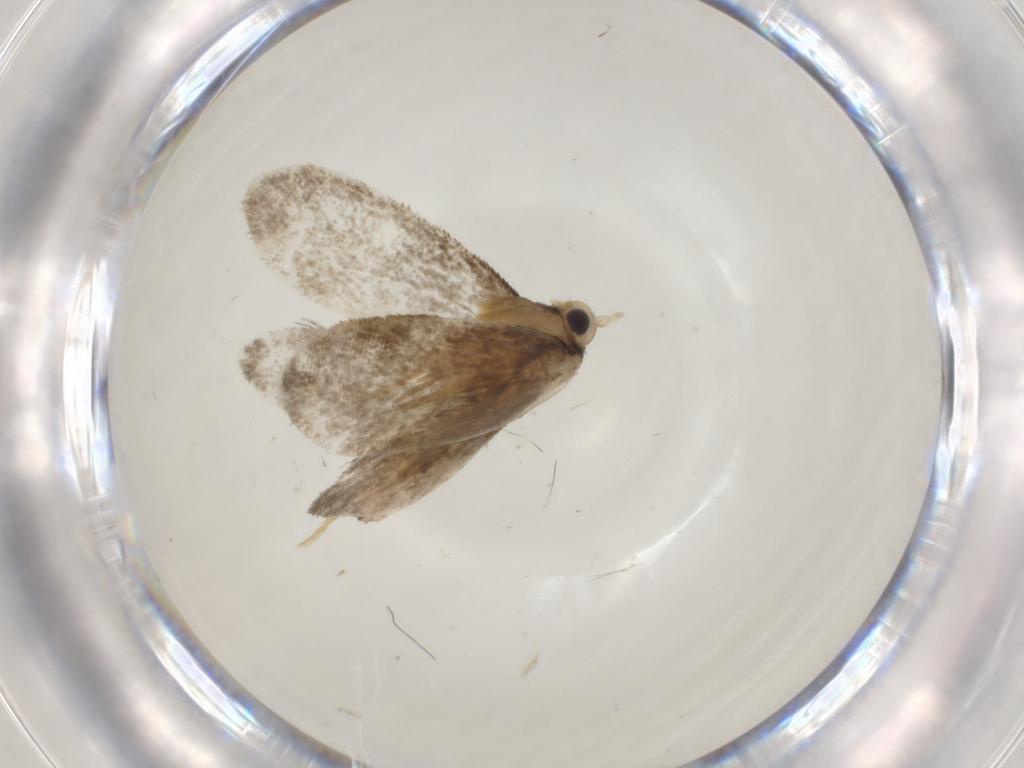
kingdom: Animalia
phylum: Arthropoda
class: Insecta
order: Lepidoptera
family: Psychidae
